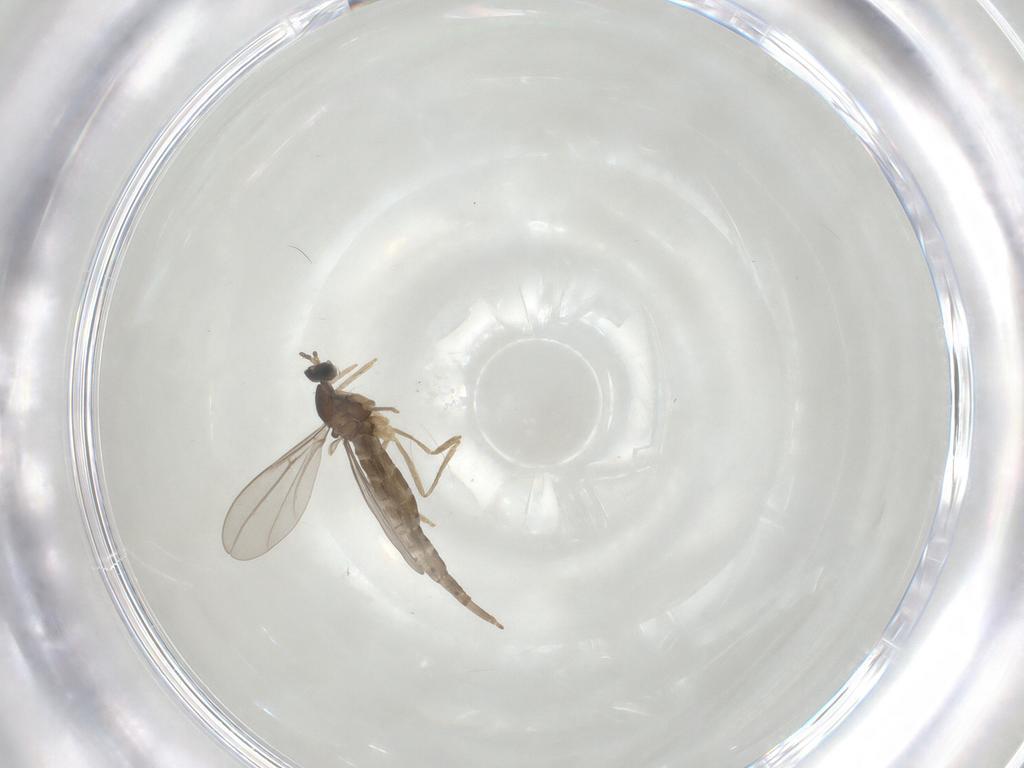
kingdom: Animalia
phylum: Arthropoda
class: Insecta
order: Diptera
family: Cecidomyiidae
